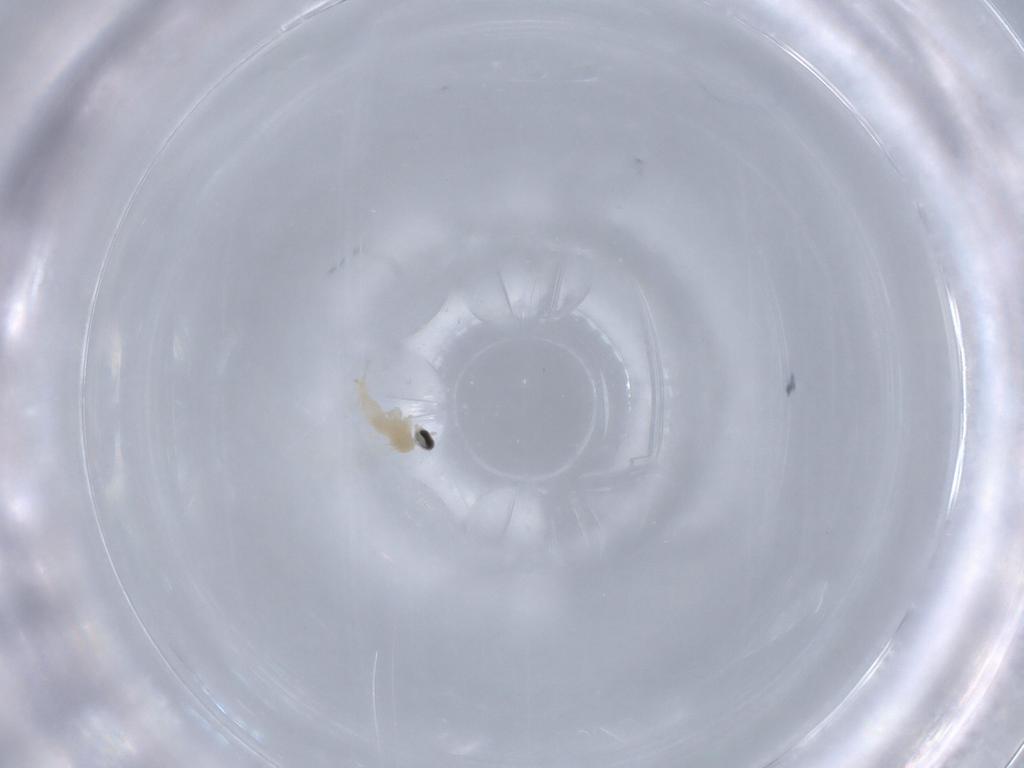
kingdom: Animalia
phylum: Arthropoda
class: Insecta
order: Diptera
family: Cecidomyiidae
